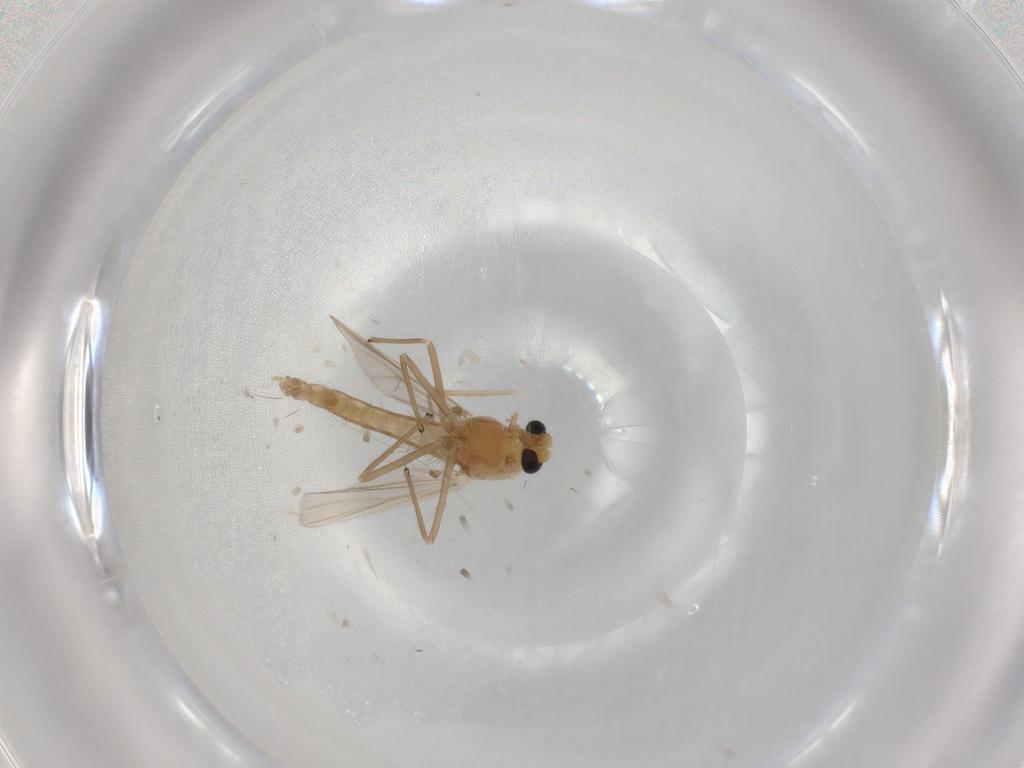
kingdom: Animalia
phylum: Arthropoda
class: Insecta
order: Diptera
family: Chironomidae
